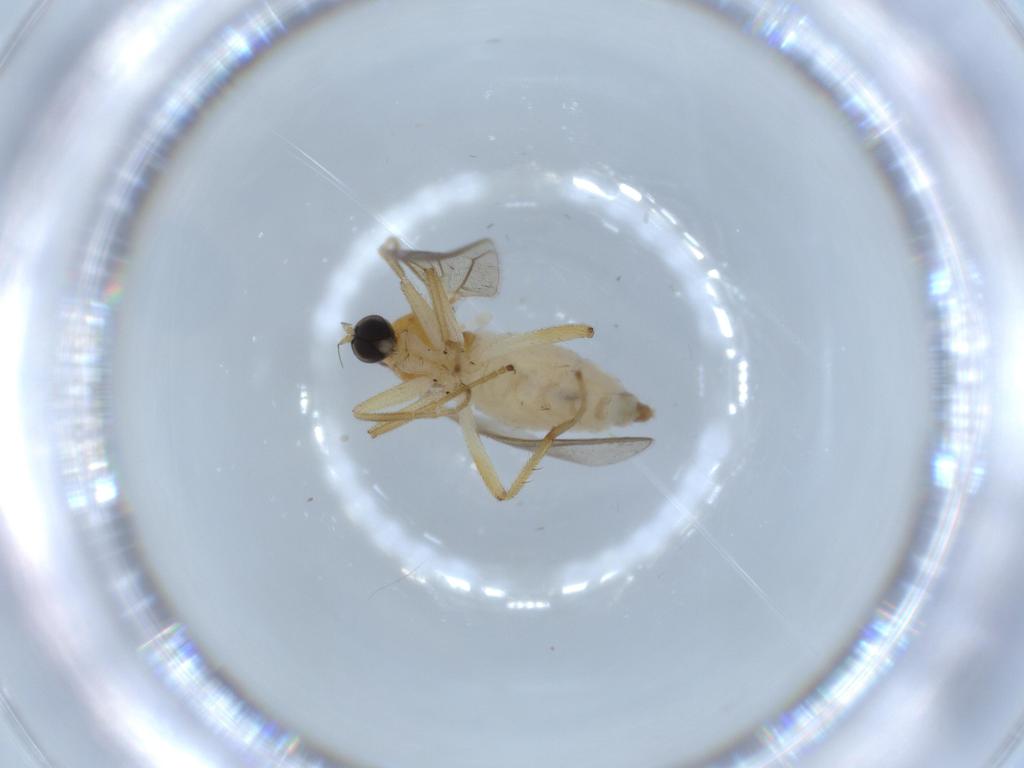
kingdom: Animalia
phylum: Arthropoda
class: Insecta
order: Diptera
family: Hybotidae
